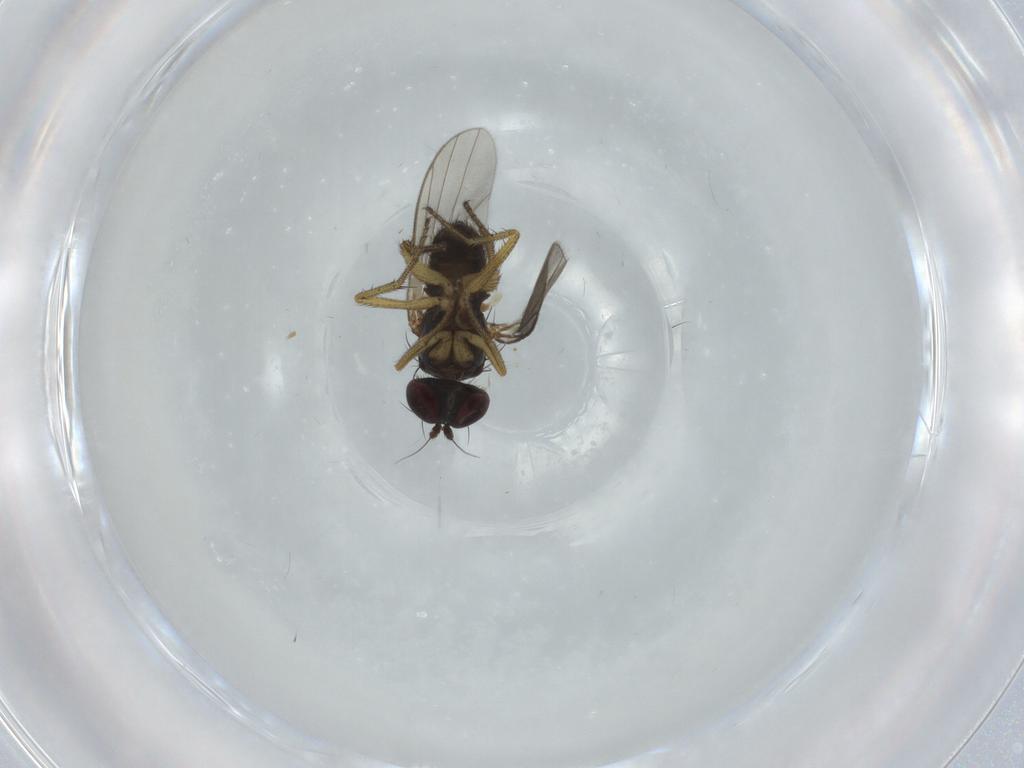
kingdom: Animalia
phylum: Arthropoda
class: Insecta
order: Diptera
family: Dolichopodidae
